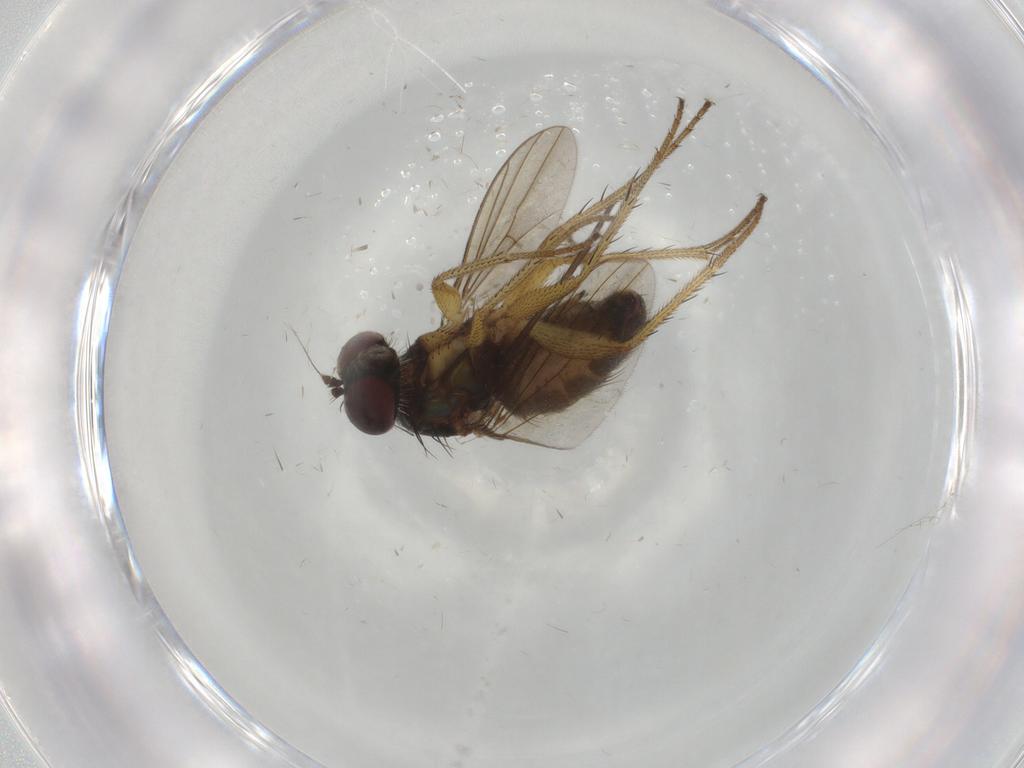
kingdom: Animalia
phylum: Arthropoda
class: Insecta
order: Diptera
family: Dolichopodidae
